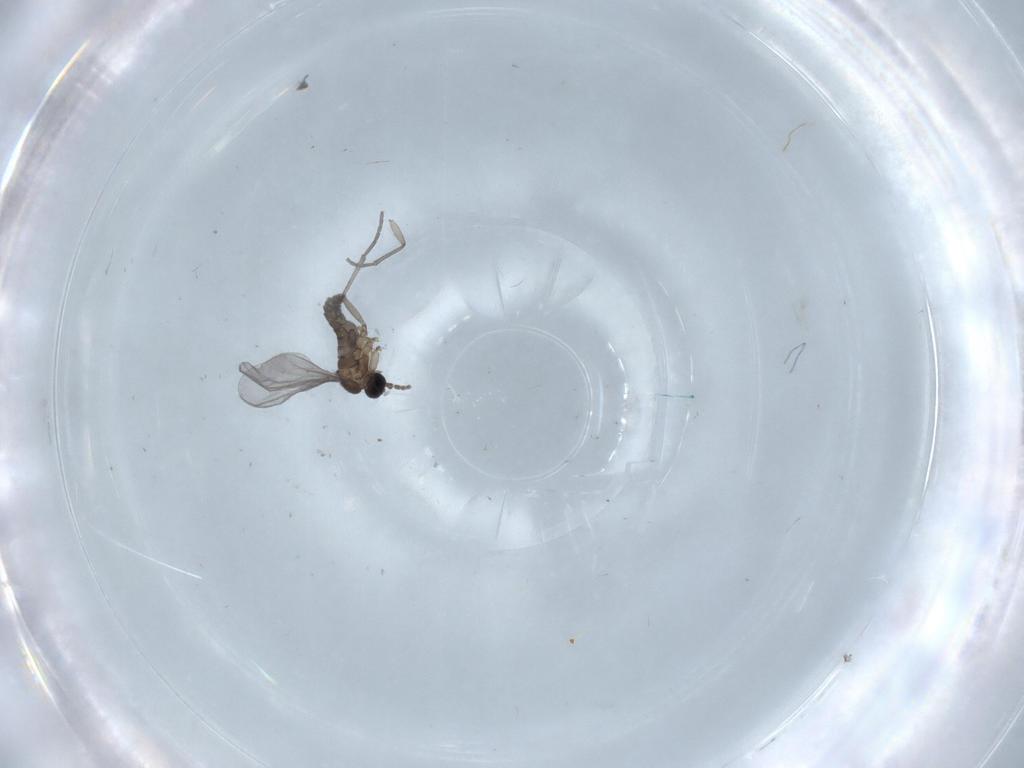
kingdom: Animalia
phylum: Arthropoda
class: Insecta
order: Diptera
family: Ceratopogonidae
